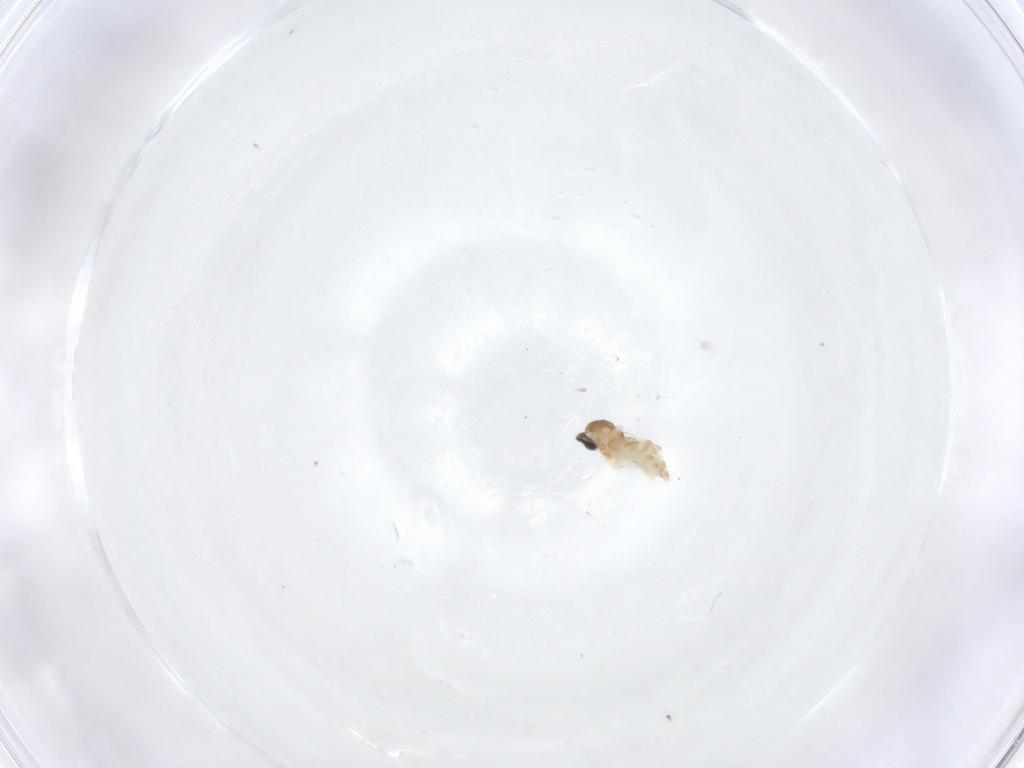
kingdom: Animalia
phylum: Arthropoda
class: Insecta
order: Diptera
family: Cecidomyiidae
